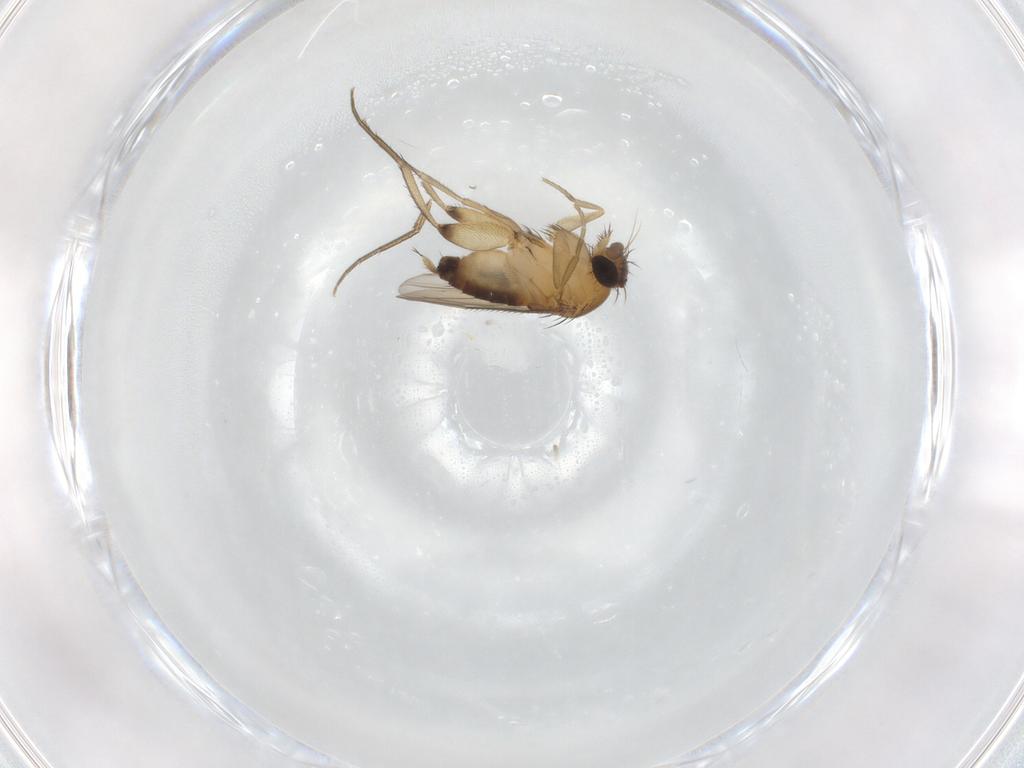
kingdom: Animalia
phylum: Arthropoda
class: Insecta
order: Diptera
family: Phoridae
